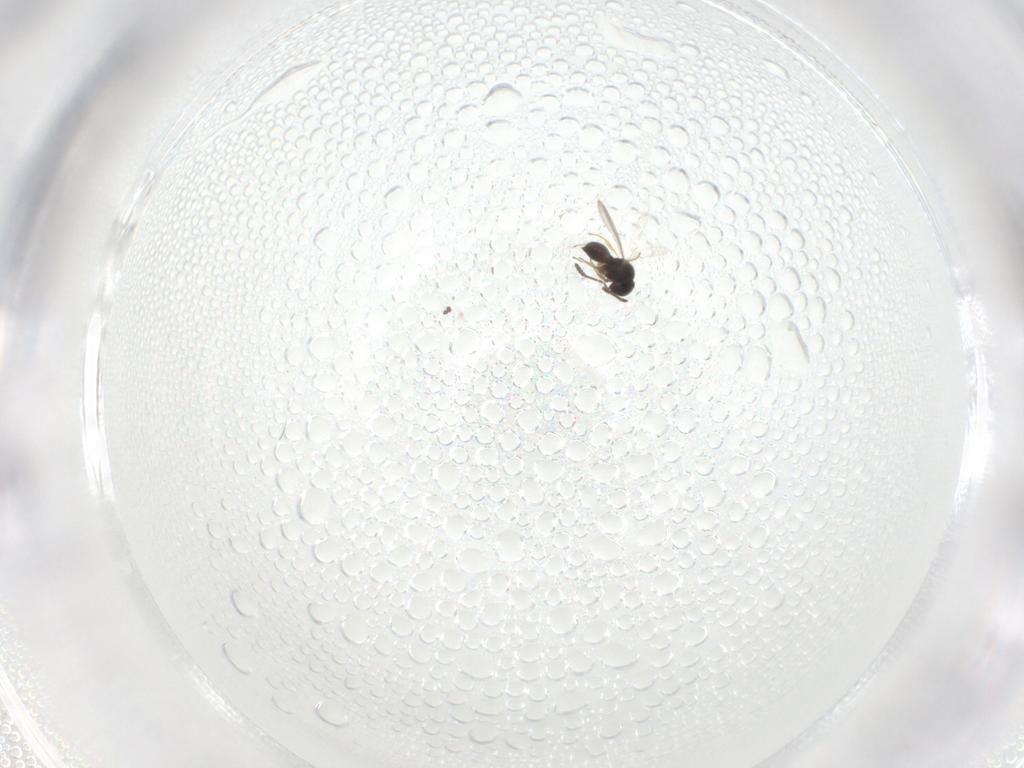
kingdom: Animalia
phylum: Arthropoda
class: Insecta
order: Hymenoptera
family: Scelionidae
